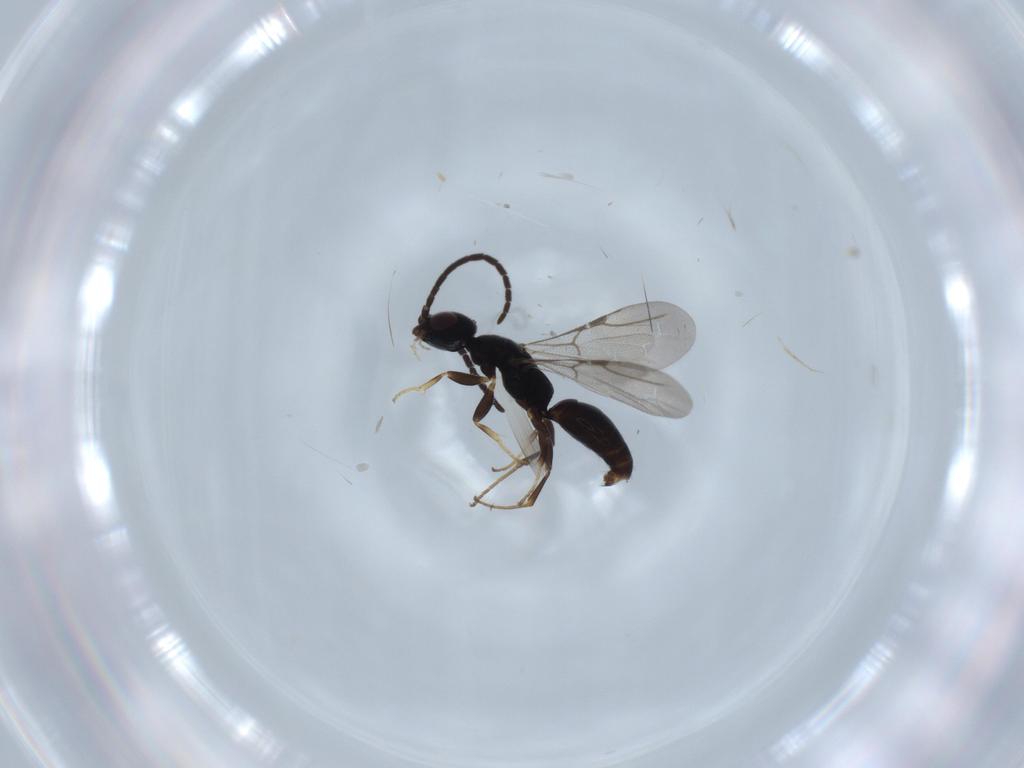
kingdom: Animalia
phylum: Arthropoda
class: Insecta
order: Hymenoptera
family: Bethylidae
